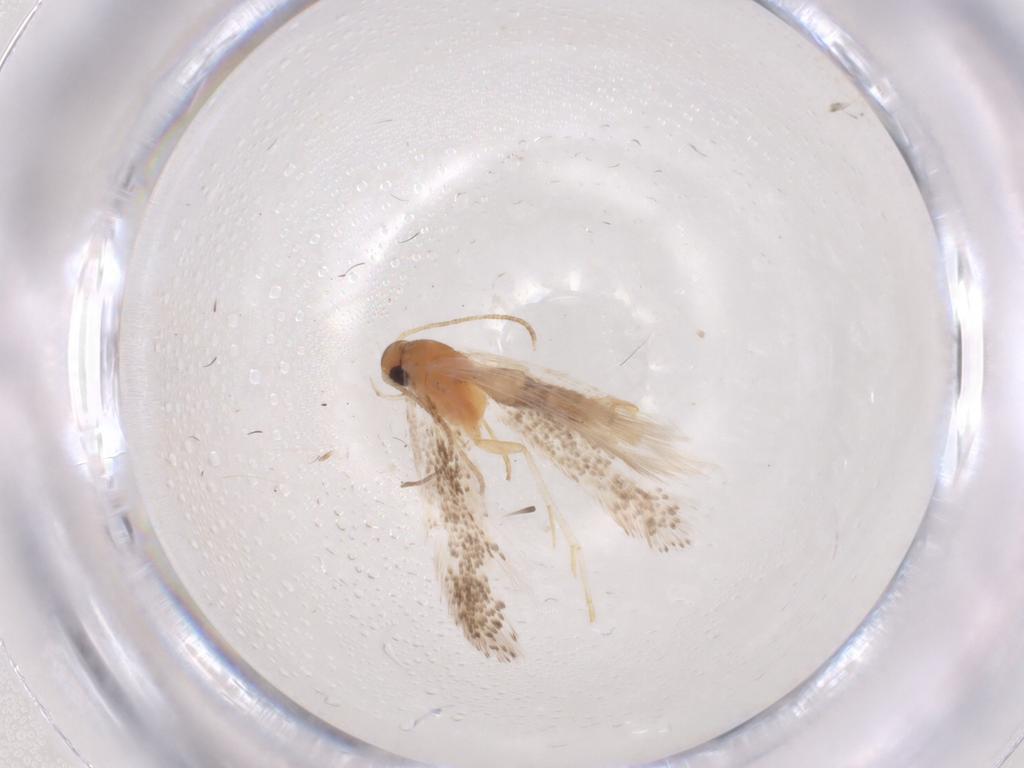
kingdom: Animalia
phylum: Arthropoda
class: Insecta
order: Lepidoptera
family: Gelechiidae
